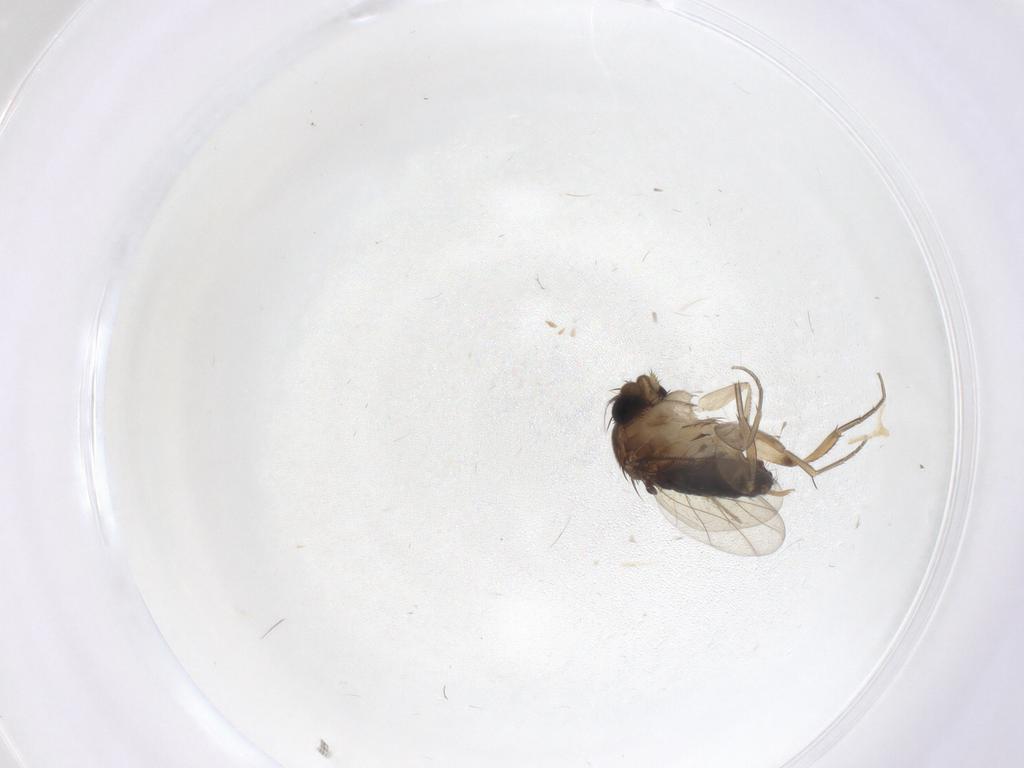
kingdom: Animalia
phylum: Arthropoda
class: Insecta
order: Diptera
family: Phoridae
